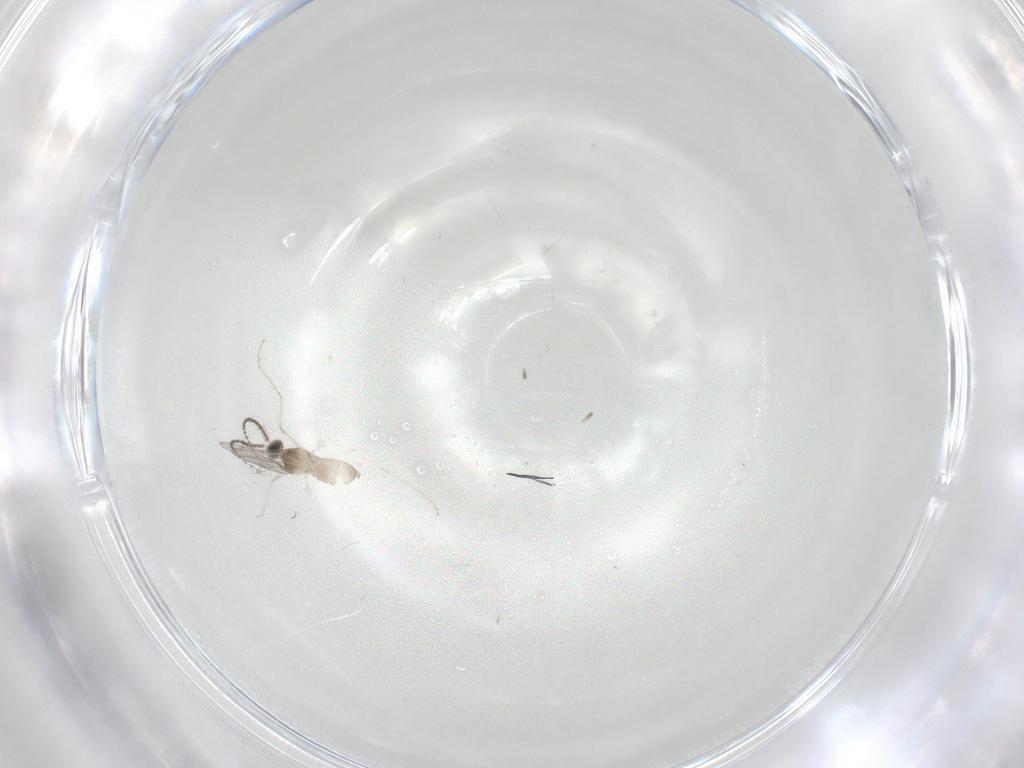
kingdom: Animalia
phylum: Arthropoda
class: Insecta
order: Diptera
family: Cecidomyiidae
